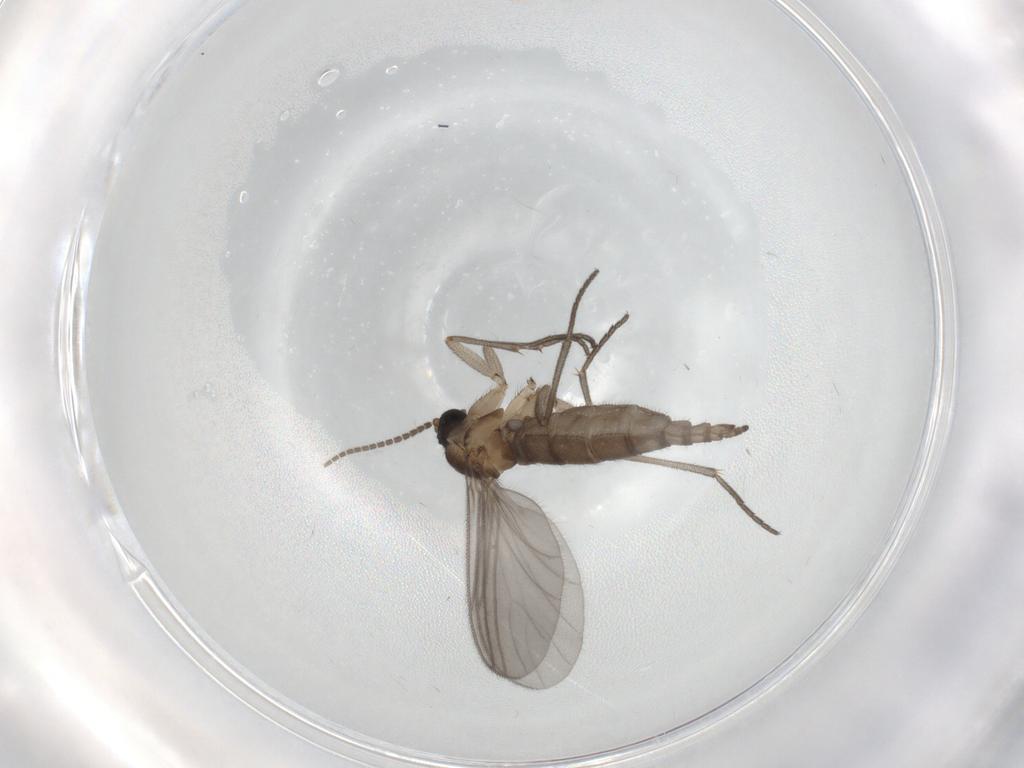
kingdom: Animalia
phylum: Arthropoda
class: Insecta
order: Diptera
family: Sciaridae
